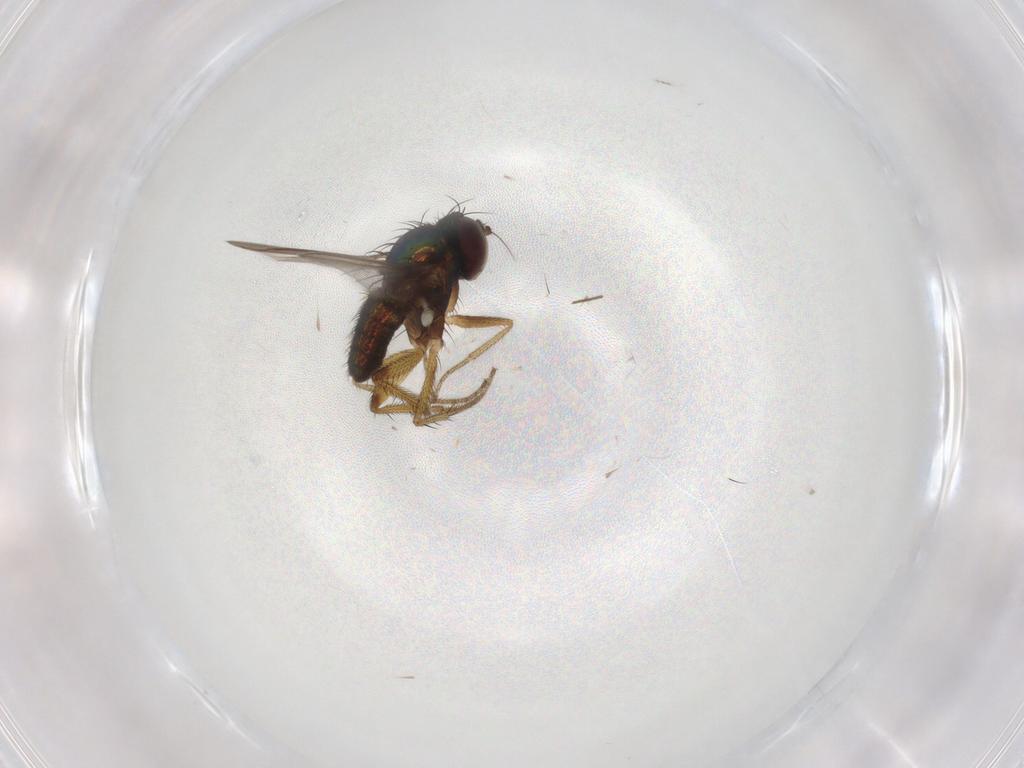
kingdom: Animalia
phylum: Arthropoda
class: Insecta
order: Diptera
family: Dolichopodidae
